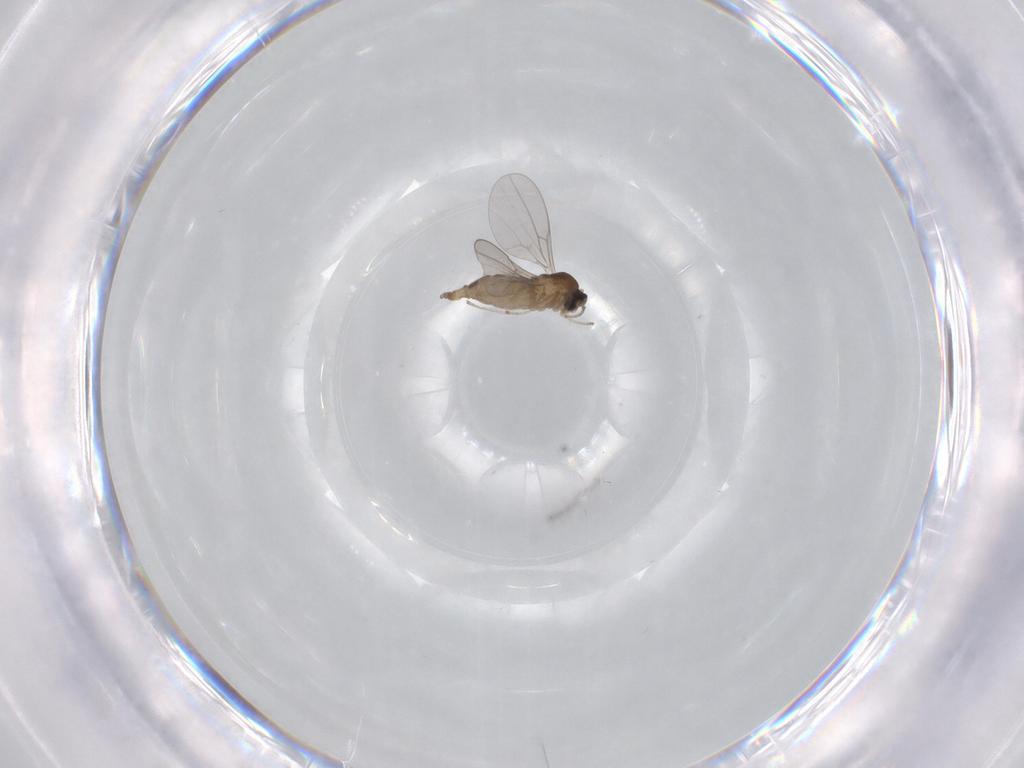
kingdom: Animalia
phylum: Arthropoda
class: Insecta
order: Diptera
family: Cecidomyiidae
